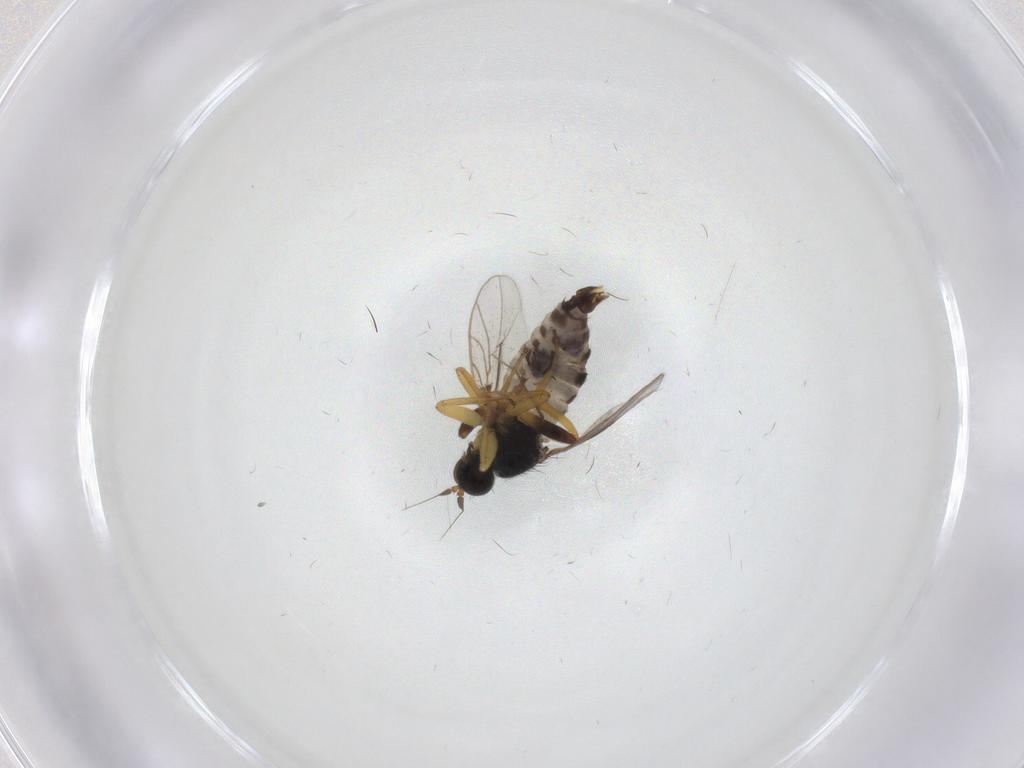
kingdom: Animalia
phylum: Arthropoda
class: Insecta
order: Diptera
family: Hybotidae
